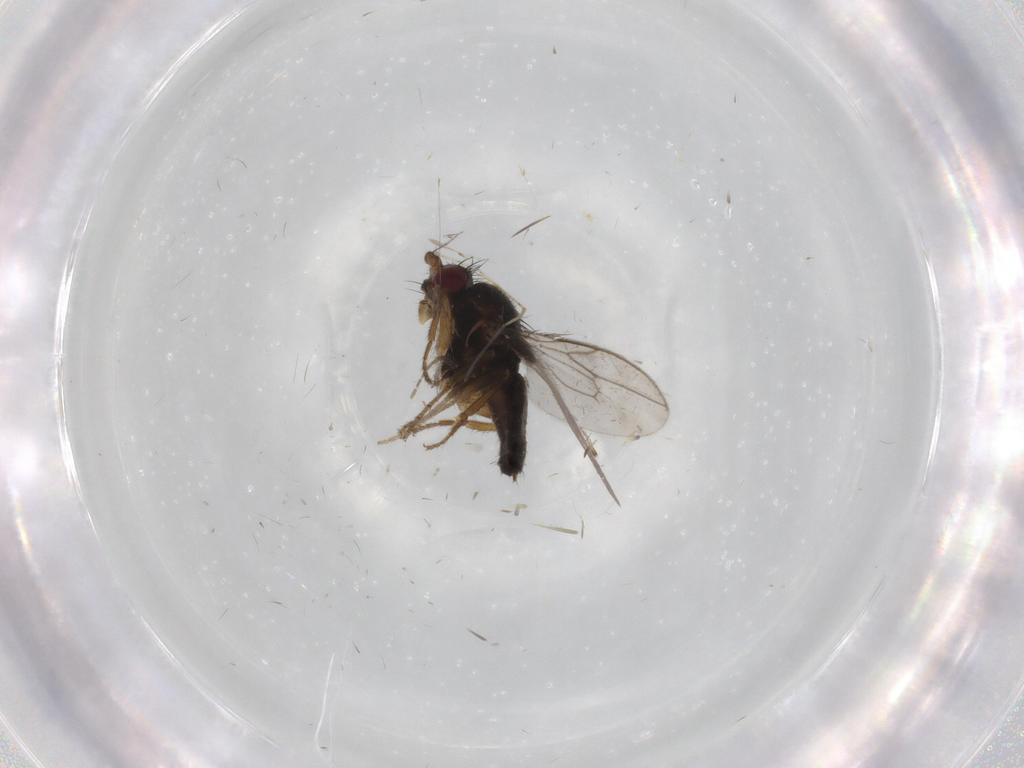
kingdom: Animalia
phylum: Arthropoda
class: Insecta
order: Diptera
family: Sphaeroceridae
